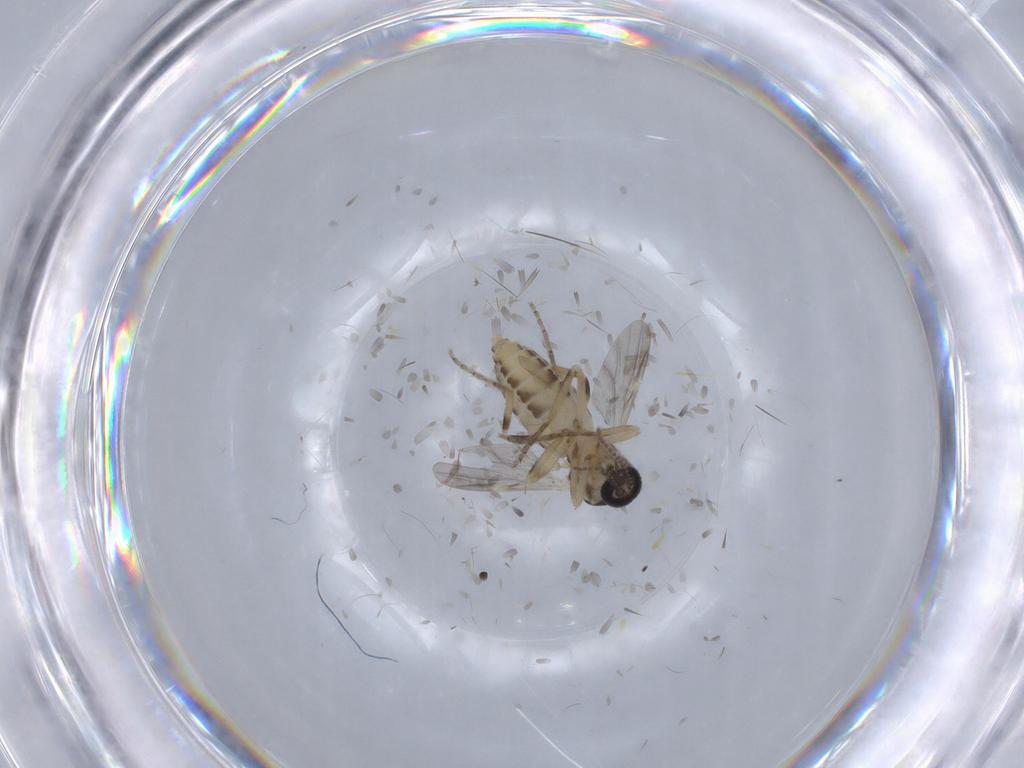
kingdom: Animalia
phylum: Arthropoda
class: Insecta
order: Diptera
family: Ceratopogonidae
